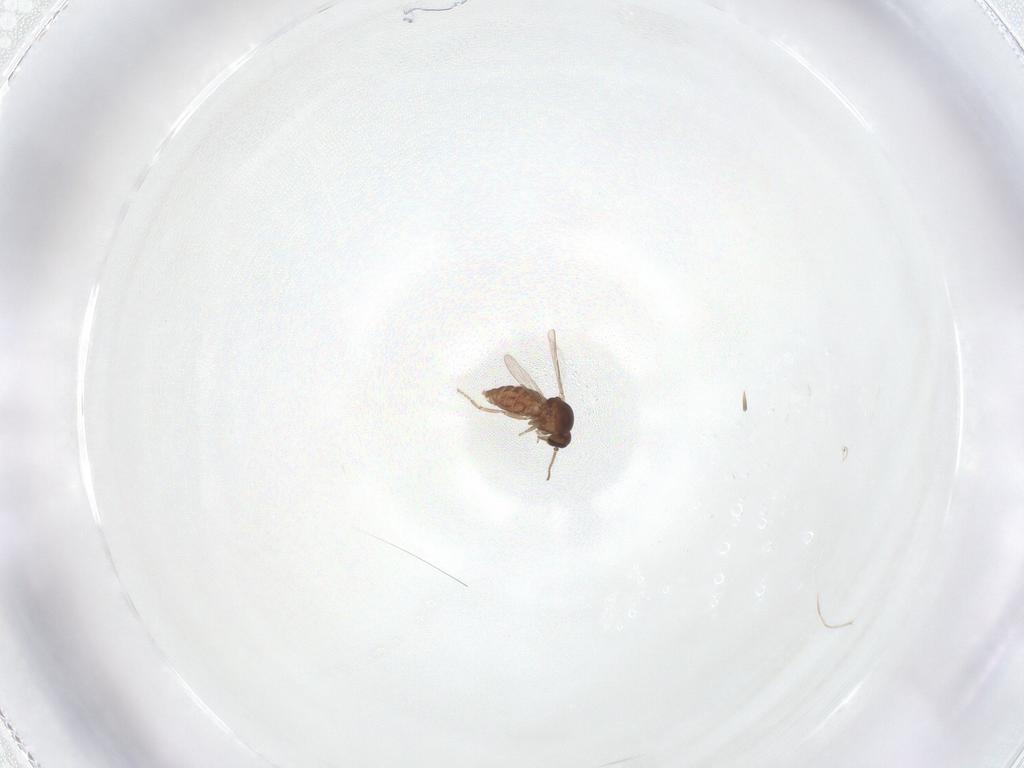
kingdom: Animalia
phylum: Arthropoda
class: Insecta
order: Diptera
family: Ceratopogonidae
